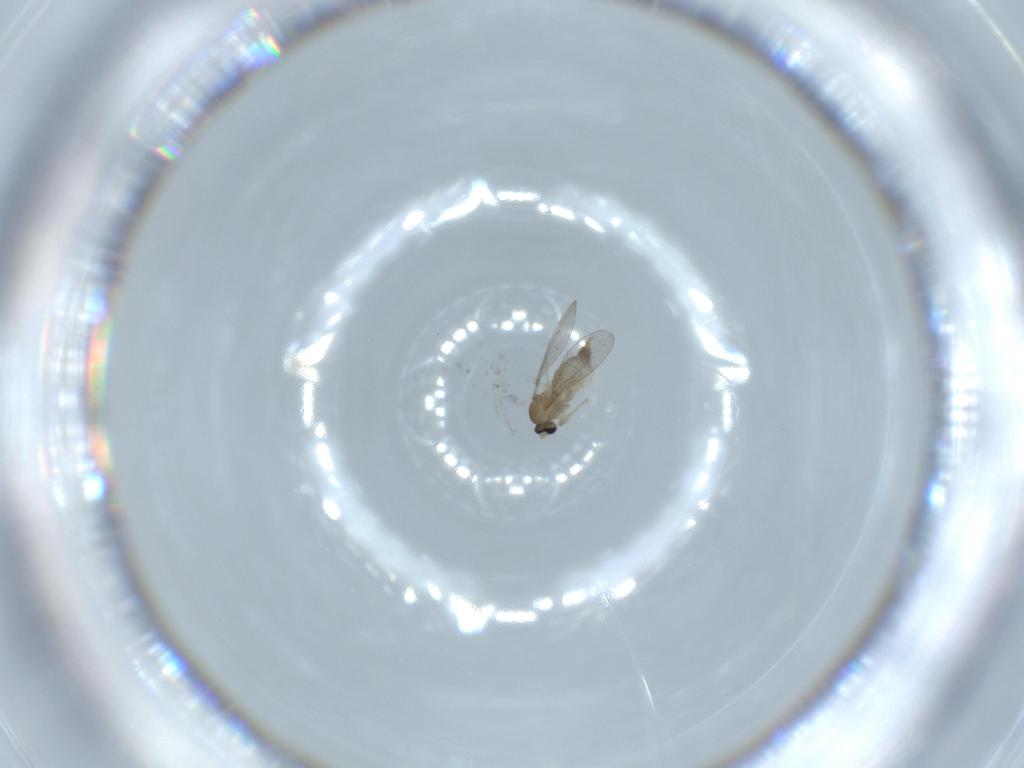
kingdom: Animalia
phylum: Arthropoda
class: Insecta
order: Diptera
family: Cecidomyiidae
